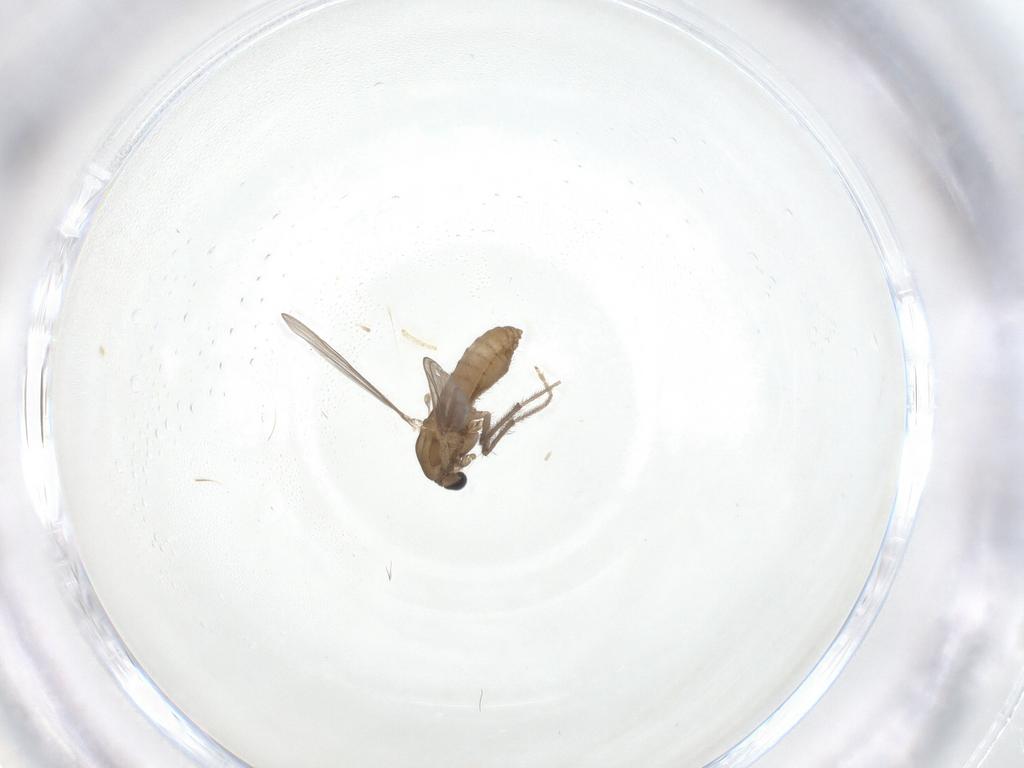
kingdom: Animalia
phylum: Arthropoda
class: Insecta
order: Diptera
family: Chironomidae
